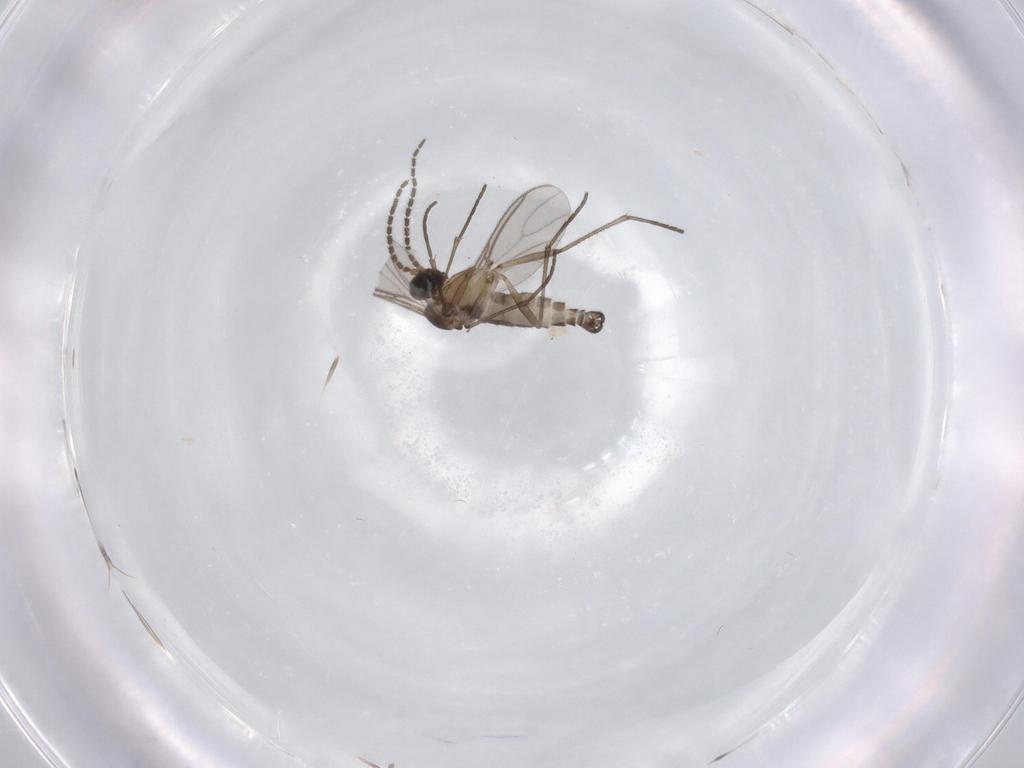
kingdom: Animalia
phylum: Arthropoda
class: Insecta
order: Diptera
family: Sciaridae
